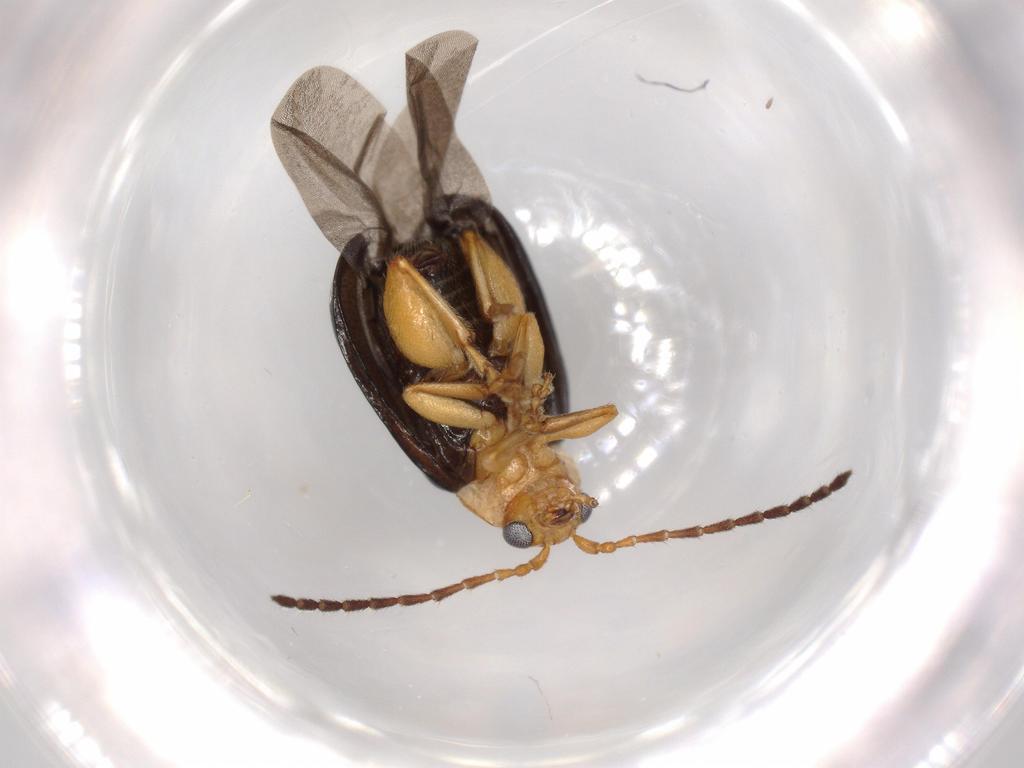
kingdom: Animalia
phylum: Arthropoda
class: Insecta
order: Coleoptera
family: Chrysomelidae
